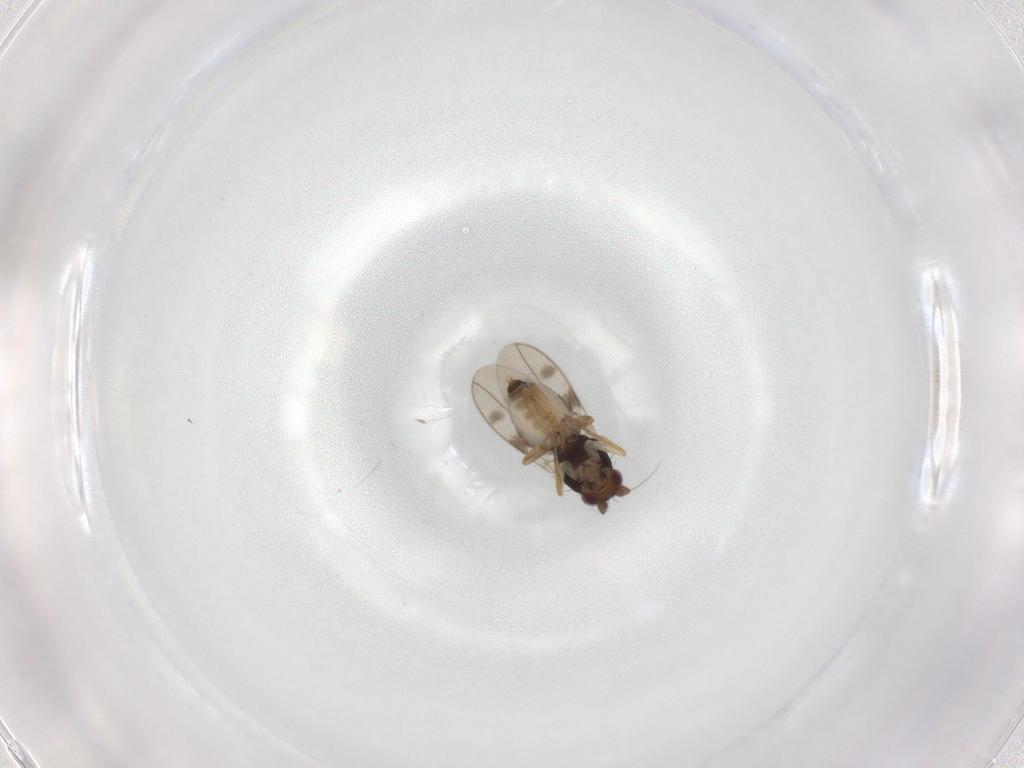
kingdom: Animalia
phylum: Arthropoda
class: Insecta
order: Diptera
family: Sphaeroceridae
